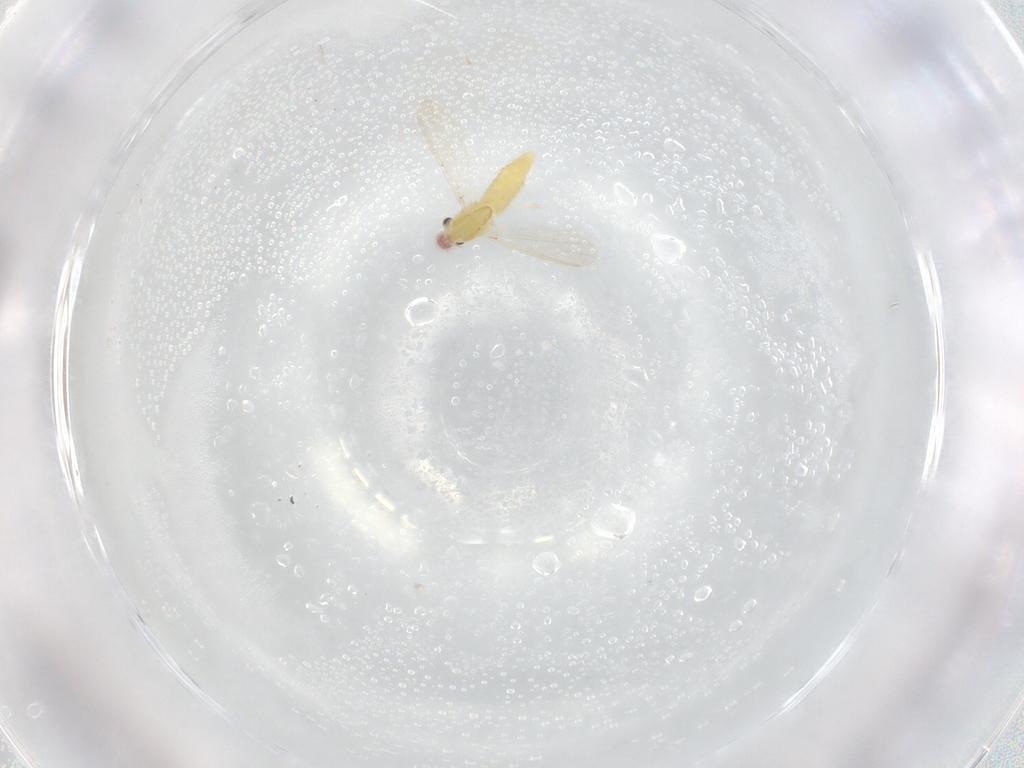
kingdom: Animalia
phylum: Arthropoda
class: Insecta
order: Diptera
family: Chironomidae
